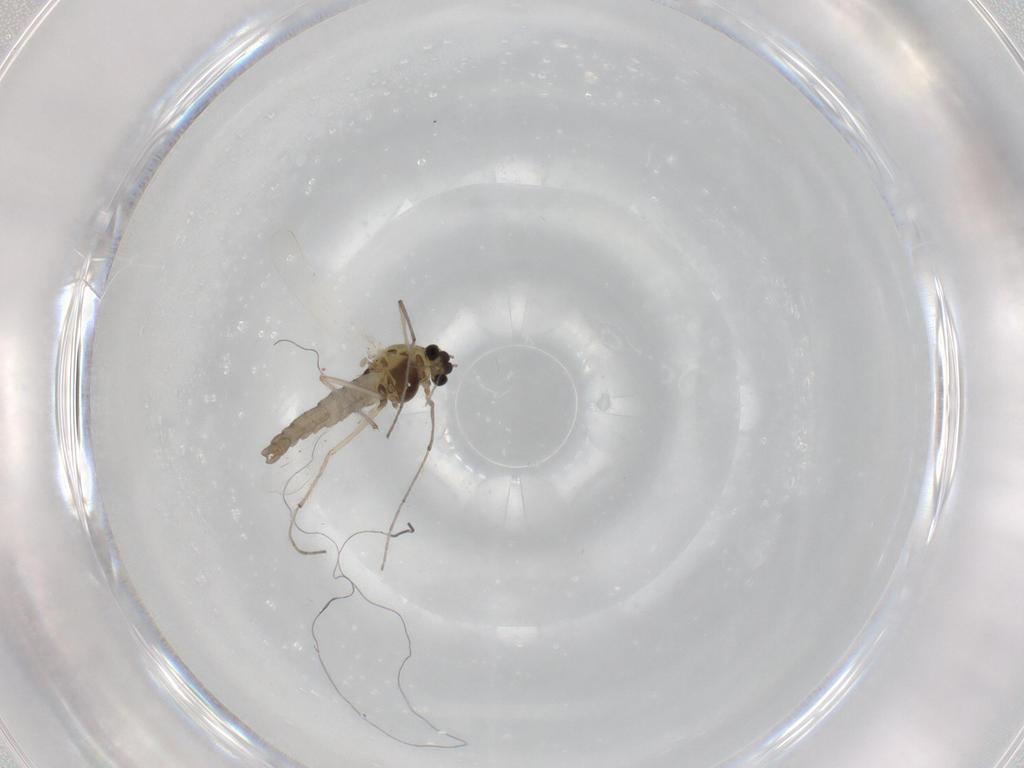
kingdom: Animalia
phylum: Arthropoda
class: Insecta
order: Diptera
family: Chironomidae
